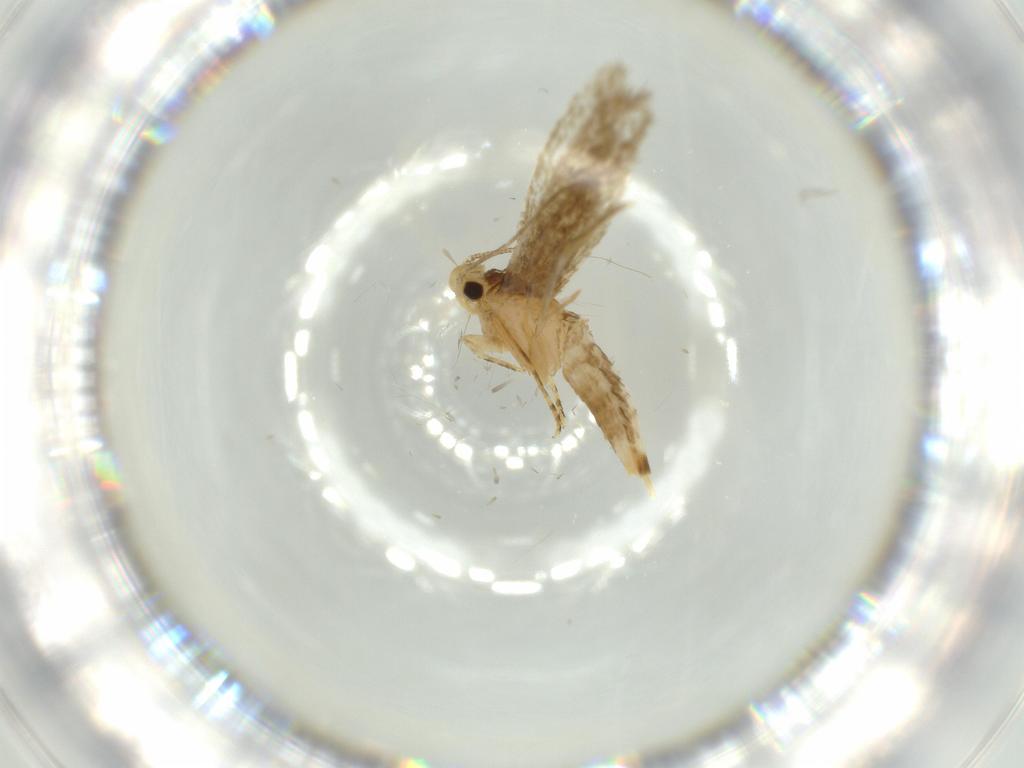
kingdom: Animalia
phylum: Arthropoda
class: Insecta
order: Lepidoptera
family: Tineidae
